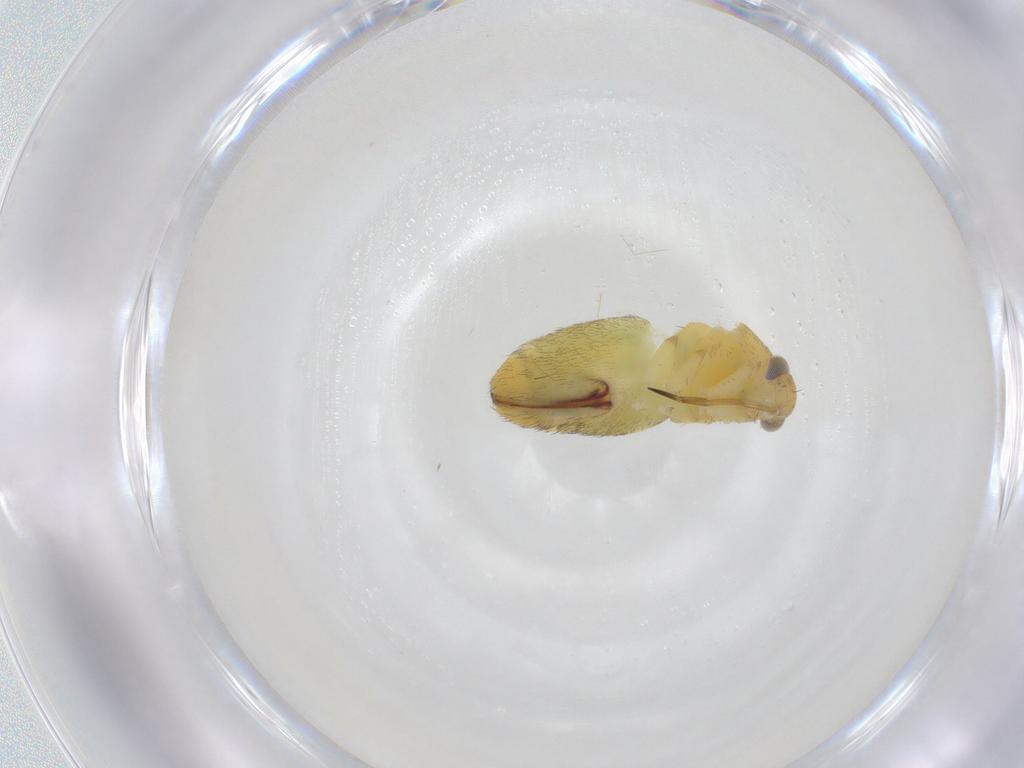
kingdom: Animalia
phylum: Arthropoda
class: Insecta
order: Hemiptera
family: Miridae
